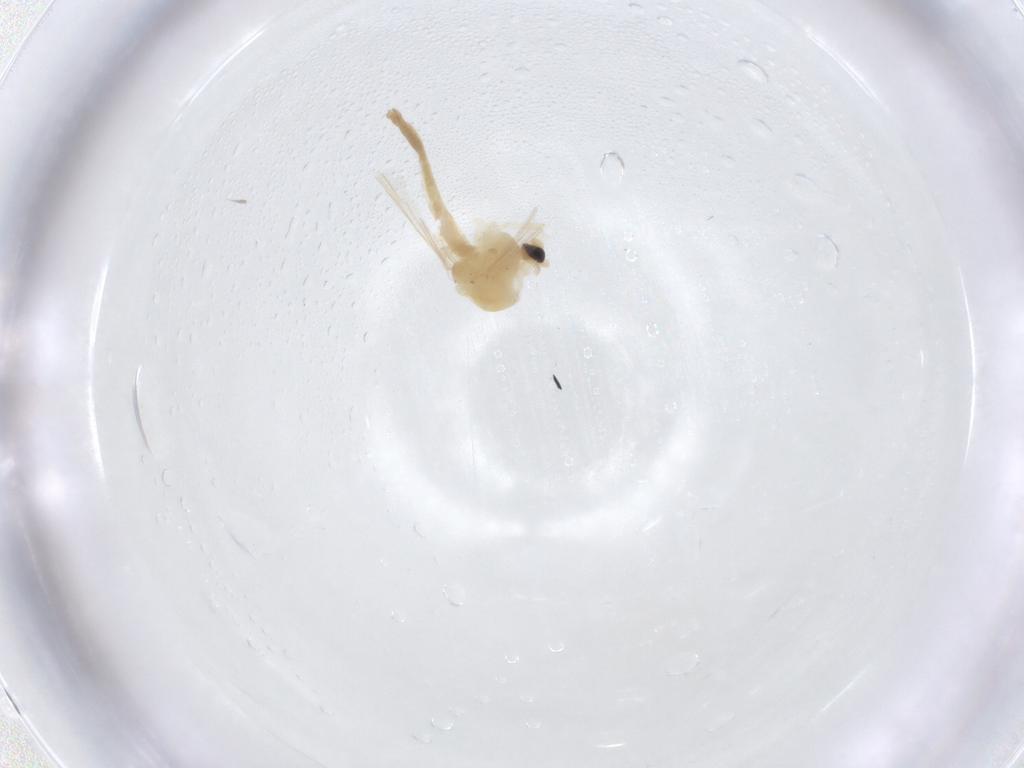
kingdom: Animalia
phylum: Arthropoda
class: Insecta
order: Diptera
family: Chironomidae
